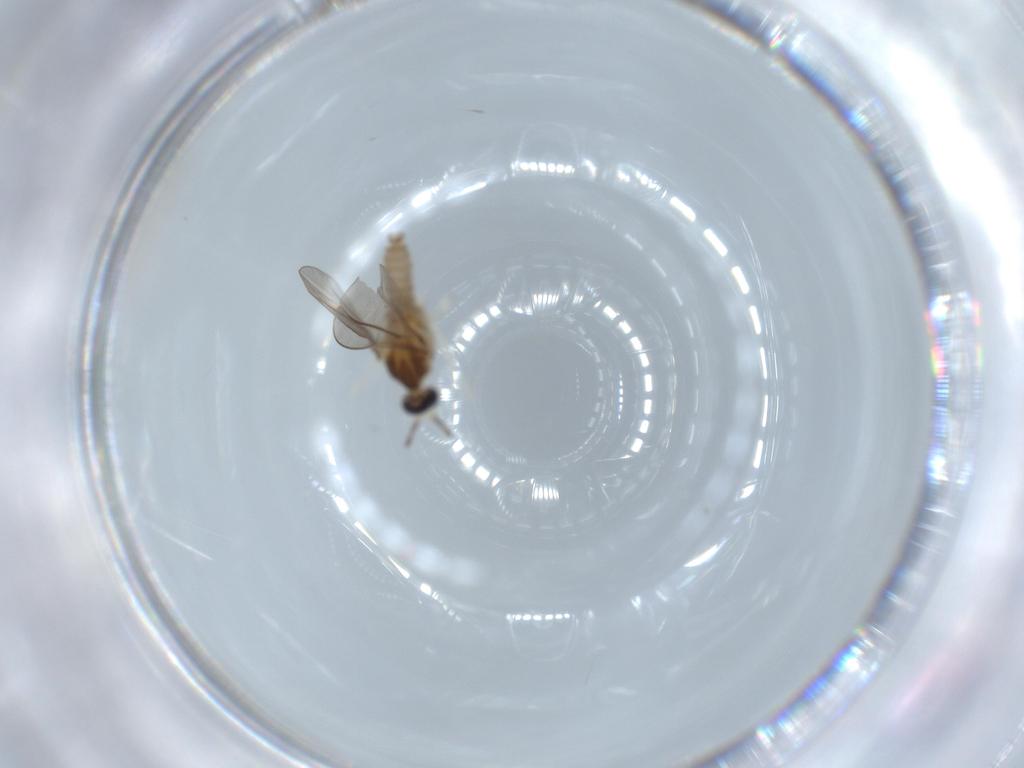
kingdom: Animalia
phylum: Arthropoda
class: Insecta
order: Diptera
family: Cecidomyiidae
